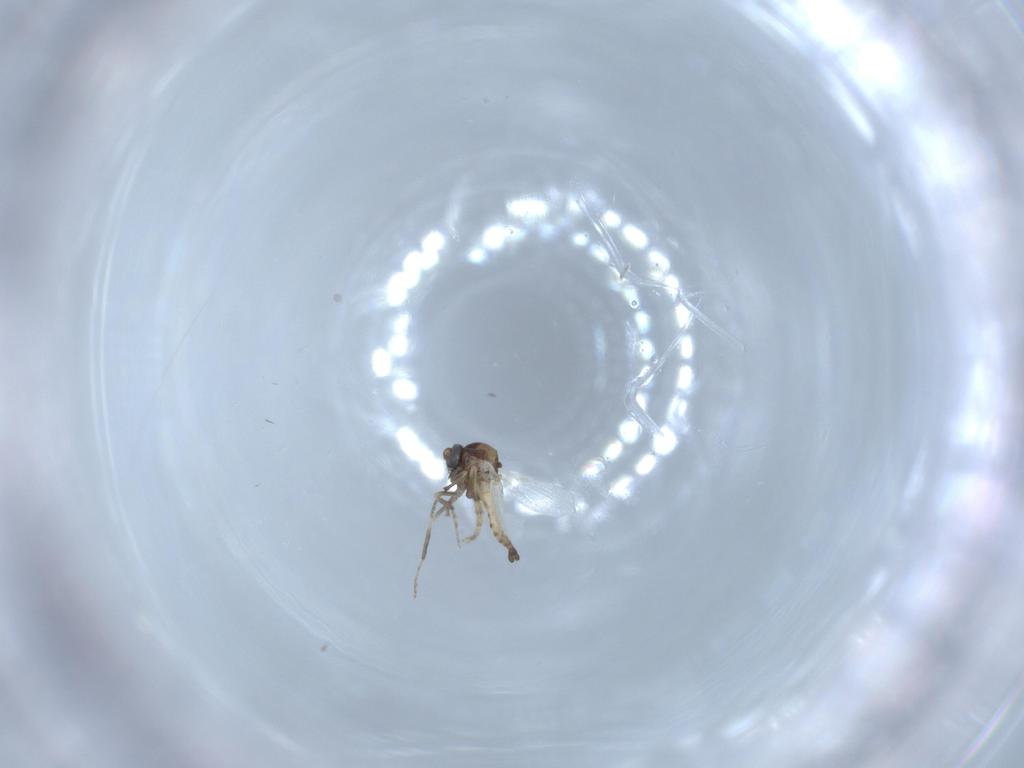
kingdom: Animalia
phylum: Arthropoda
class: Insecta
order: Diptera
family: Ceratopogonidae
